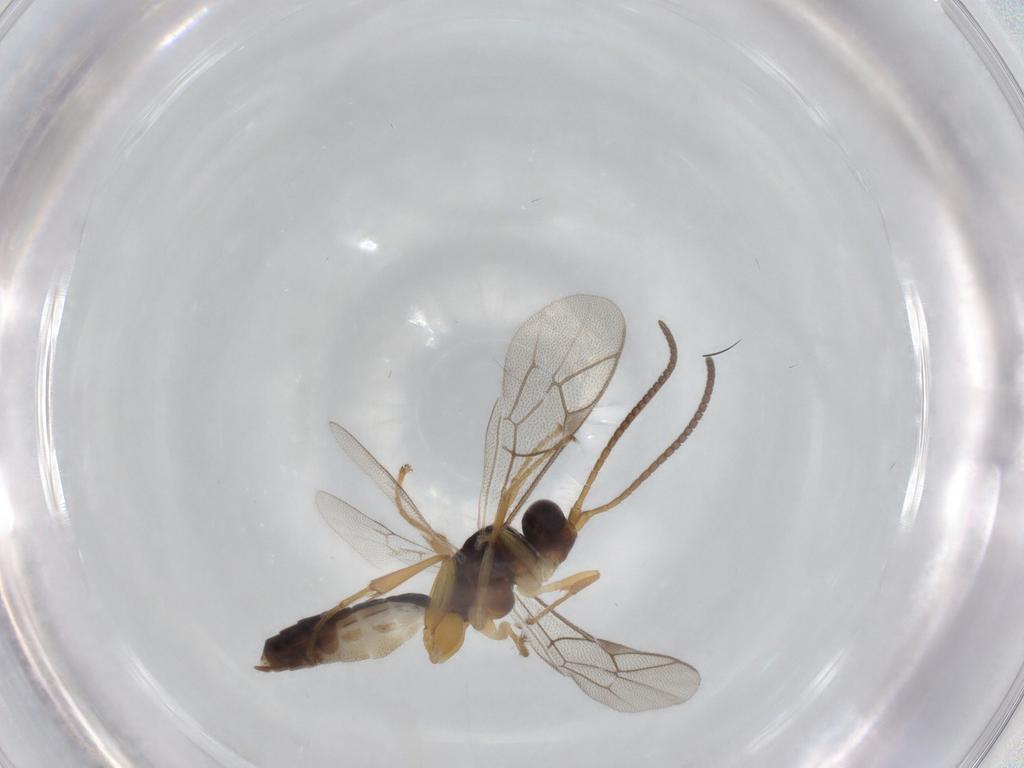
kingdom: Animalia
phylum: Arthropoda
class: Insecta
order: Hymenoptera
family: Ichneumonidae
